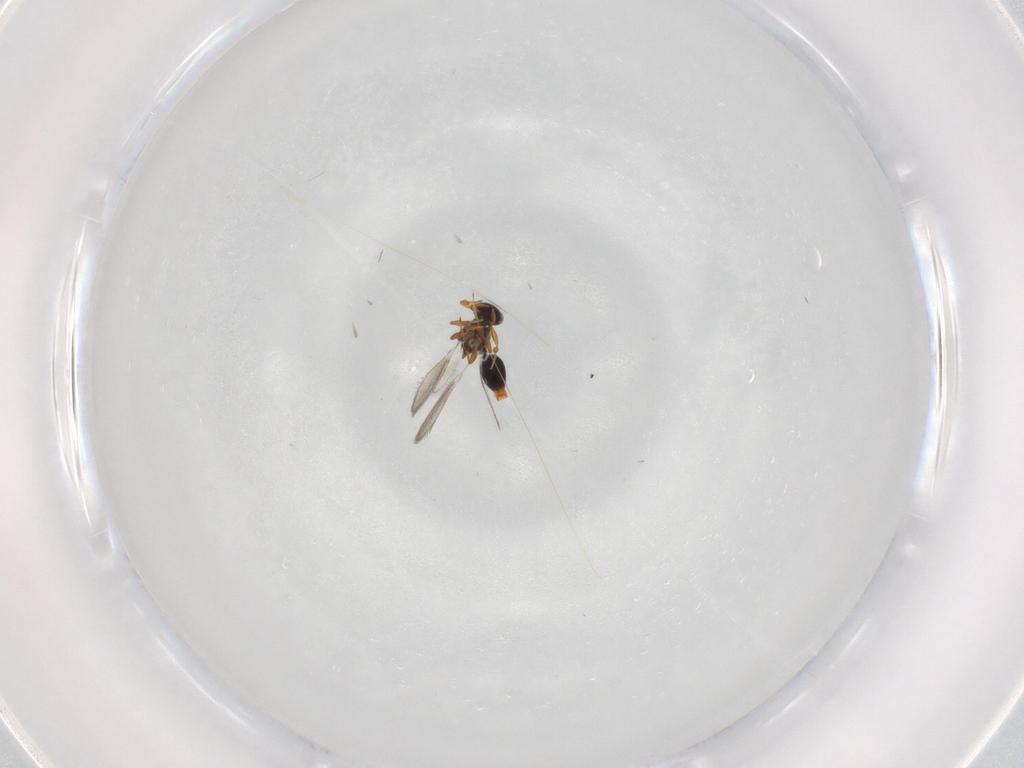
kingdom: Animalia
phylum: Arthropoda
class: Insecta
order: Hymenoptera
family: Platygastridae
